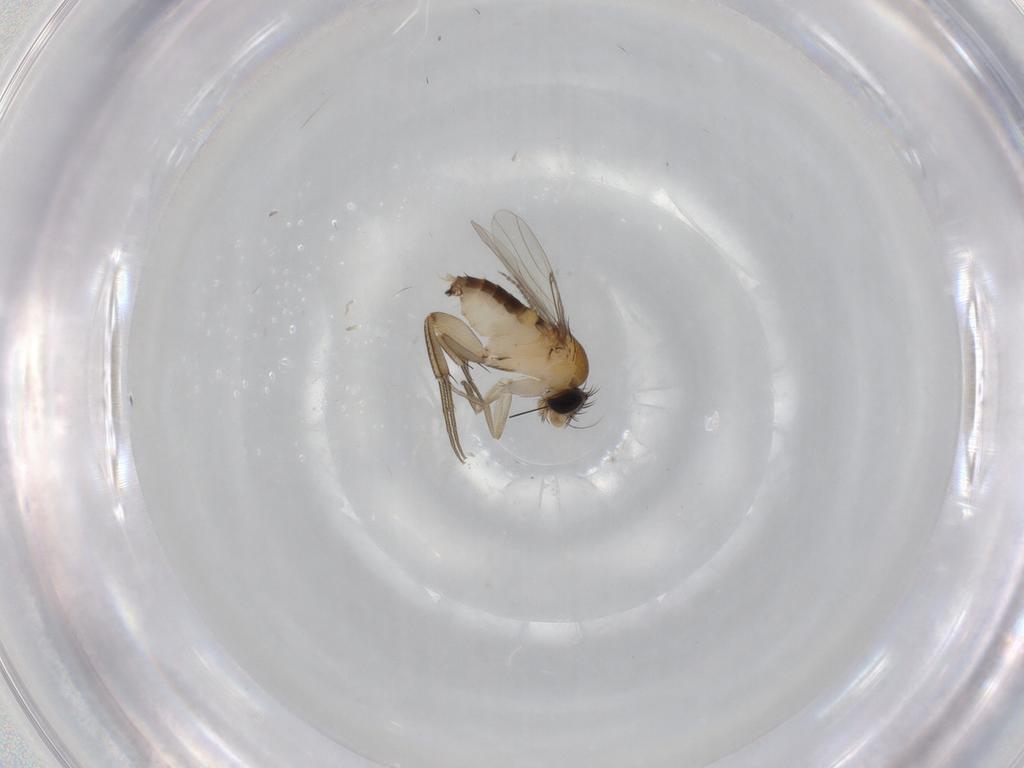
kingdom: Animalia
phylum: Arthropoda
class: Insecta
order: Diptera
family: Phoridae
